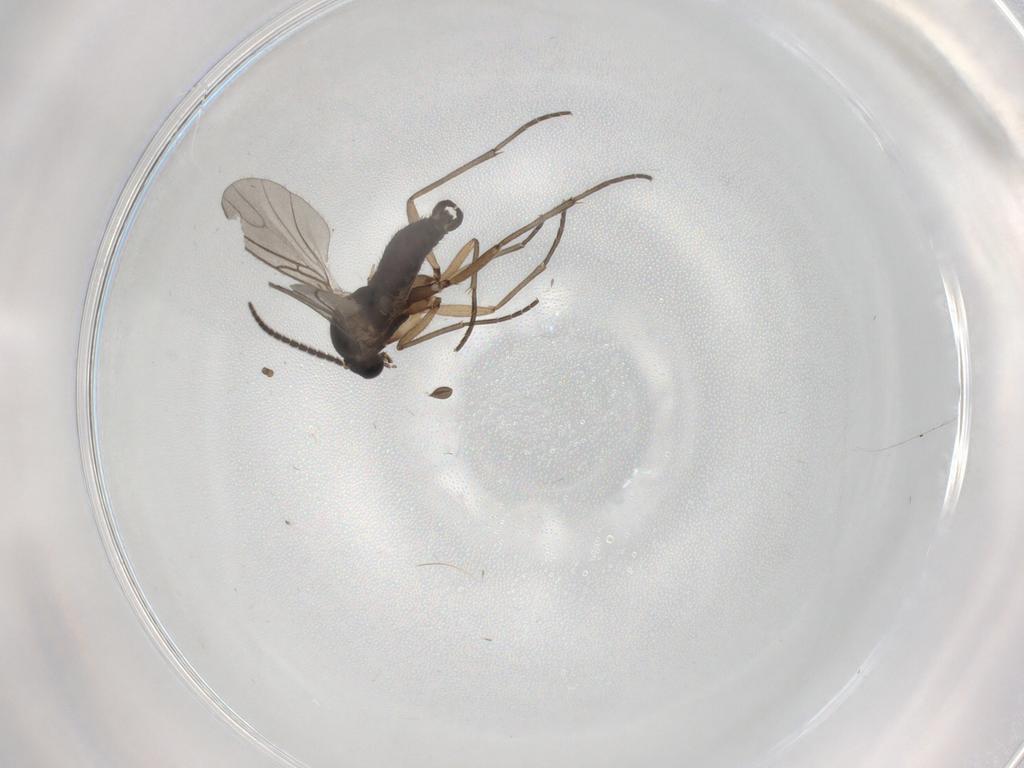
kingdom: Animalia
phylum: Arthropoda
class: Insecta
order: Diptera
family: Sciaridae
